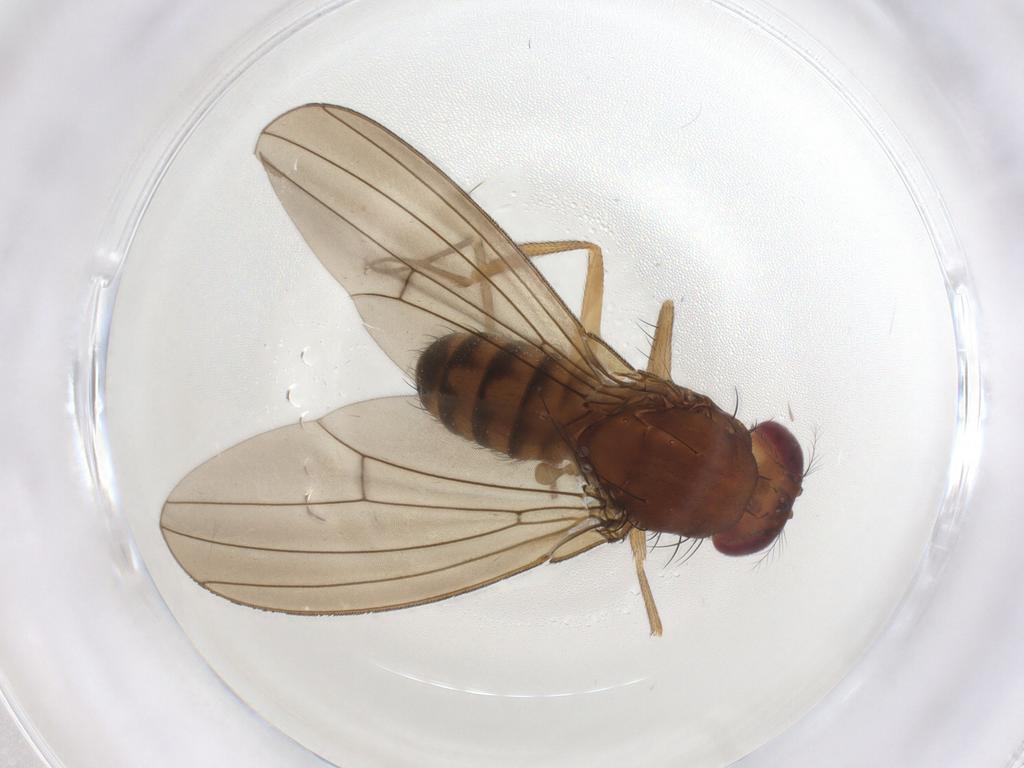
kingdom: Animalia
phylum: Arthropoda
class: Insecta
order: Diptera
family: Drosophilidae
